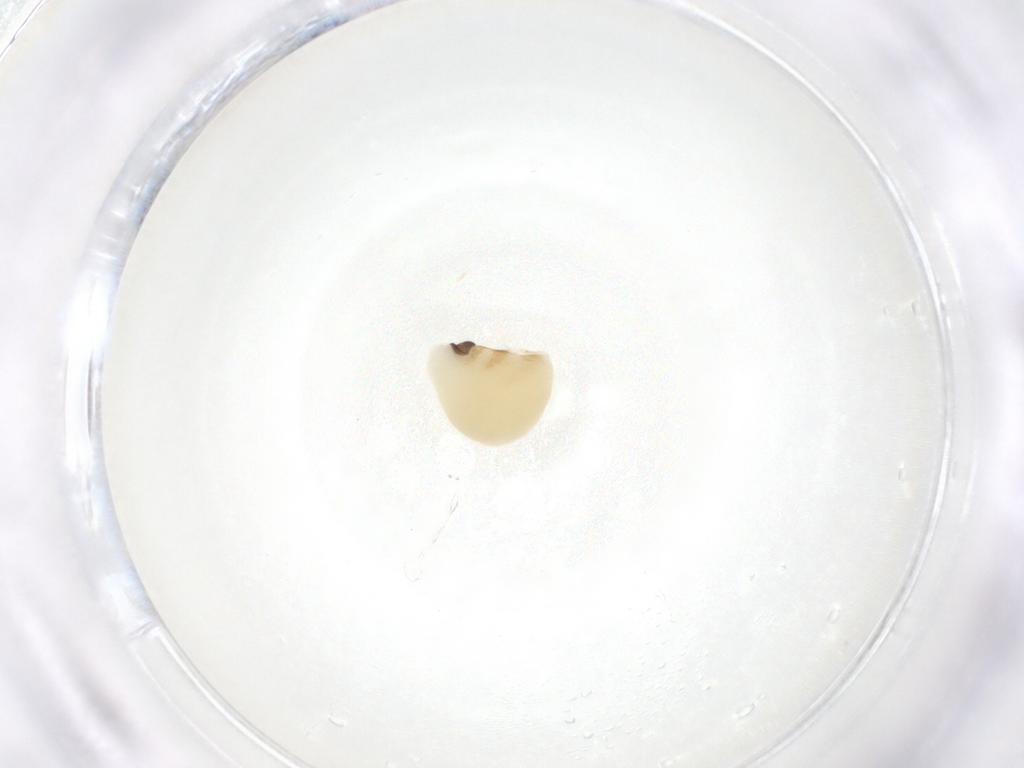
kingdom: Animalia
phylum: Arthropoda
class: Insecta
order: Hymenoptera
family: Eulophidae
